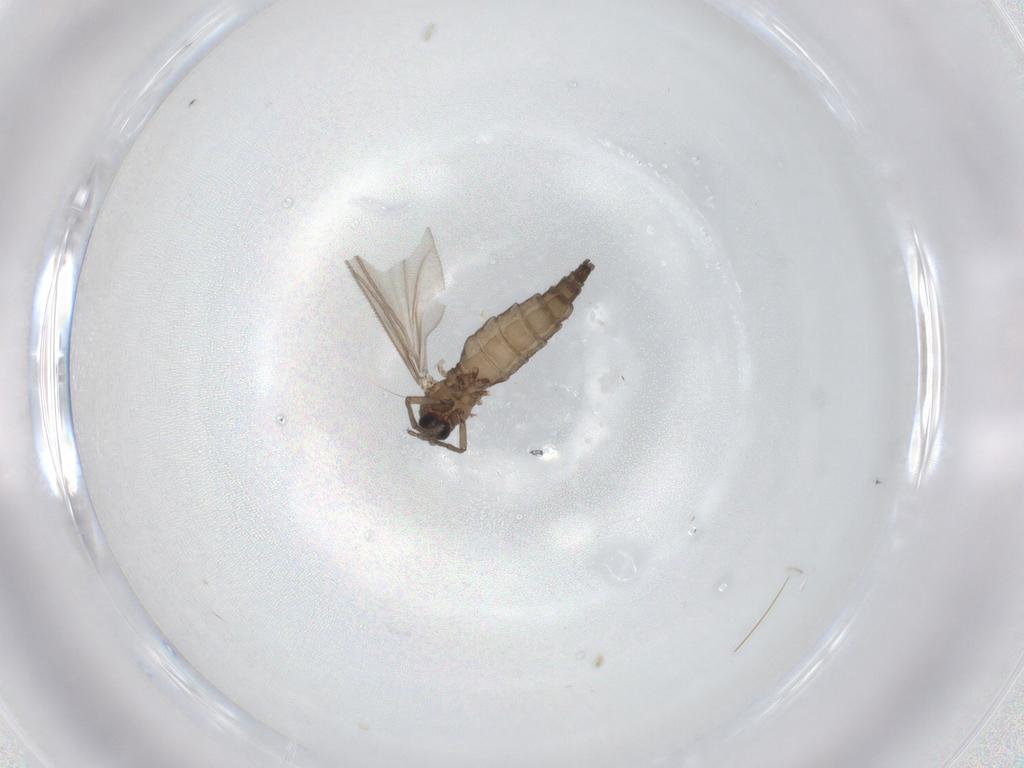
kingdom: Animalia
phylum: Arthropoda
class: Insecta
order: Diptera
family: Sciaridae
